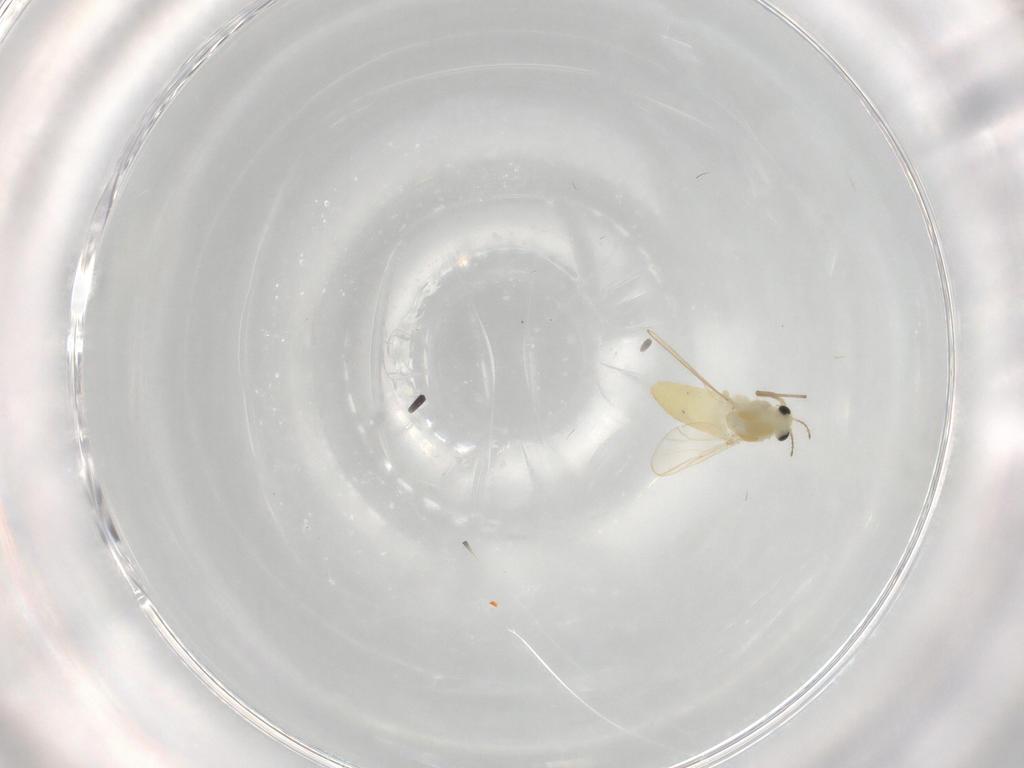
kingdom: Animalia
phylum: Arthropoda
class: Insecta
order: Diptera
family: Chironomidae
